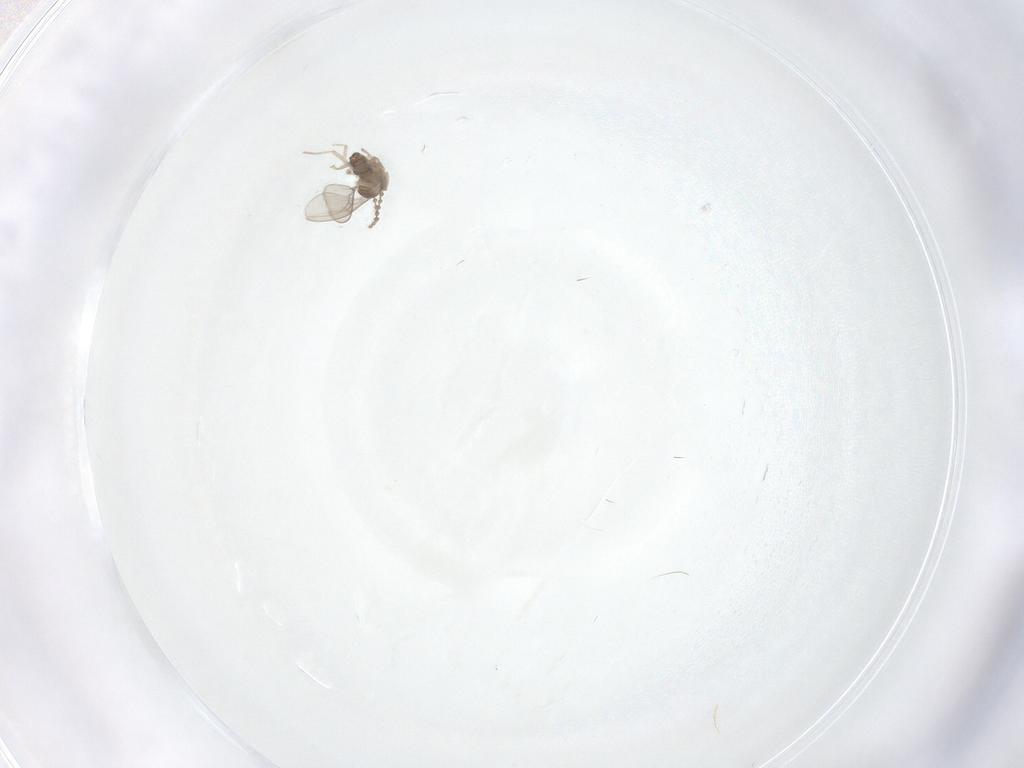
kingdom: Animalia
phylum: Arthropoda
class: Insecta
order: Diptera
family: Cecidomyiidae
